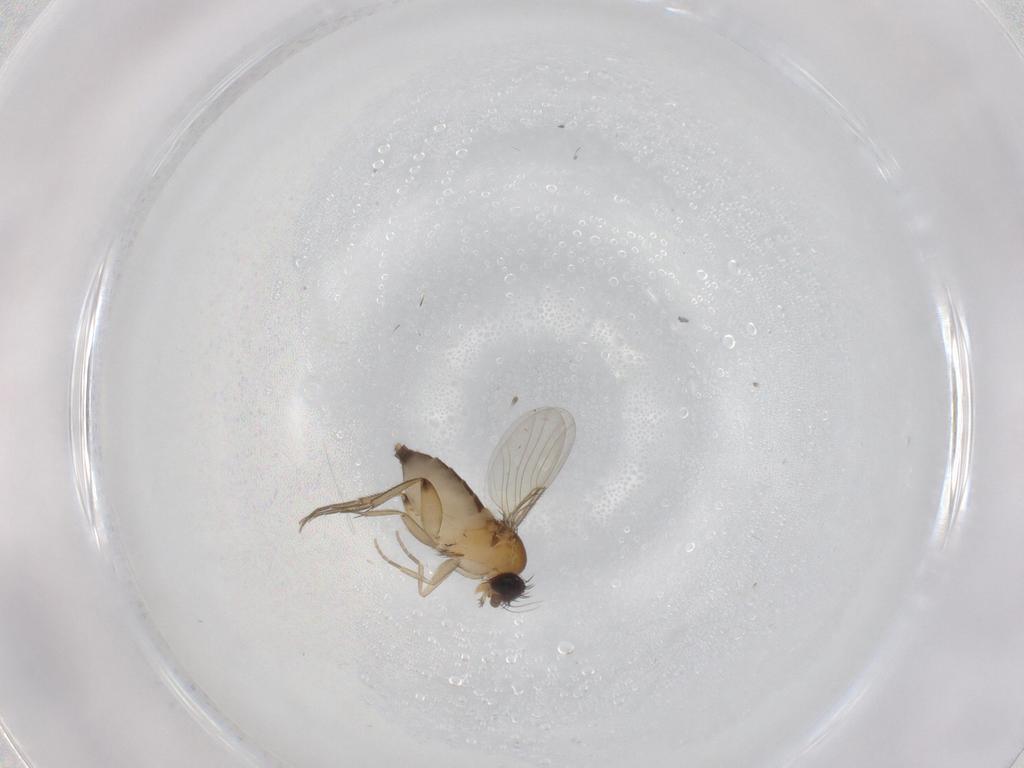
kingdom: Animalia
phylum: Arthropoda
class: Insecta
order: Diptera
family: Phoridae
